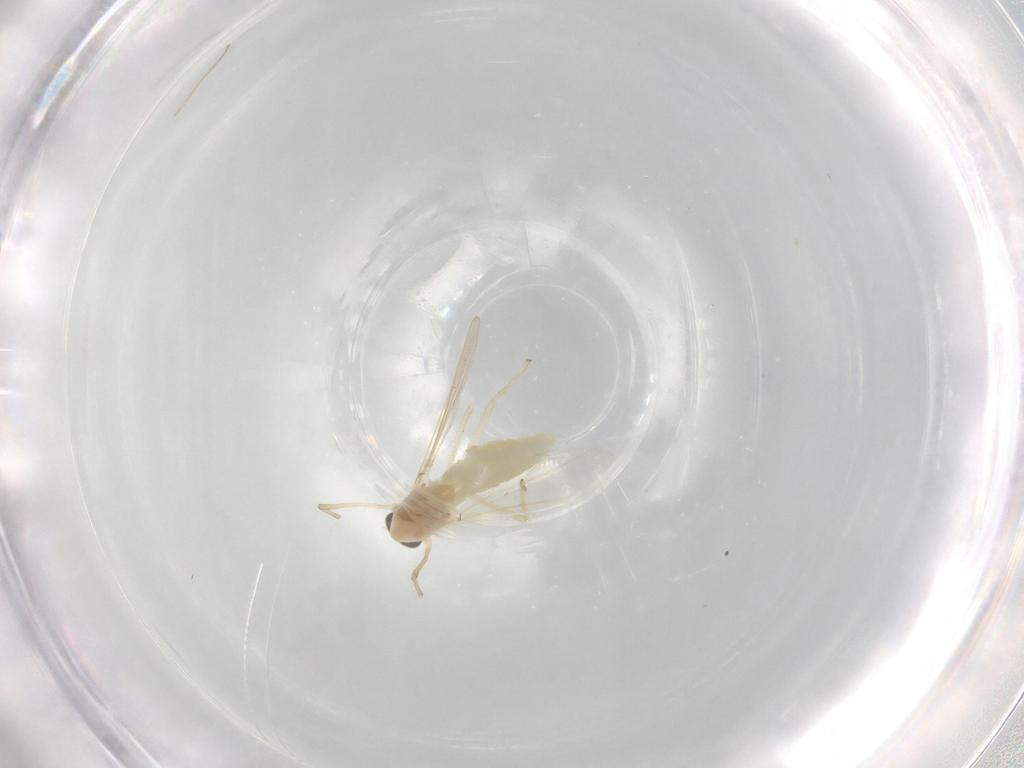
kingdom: Animalia
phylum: Arthropoda
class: Insecta
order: Diptera
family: Chironomidae
